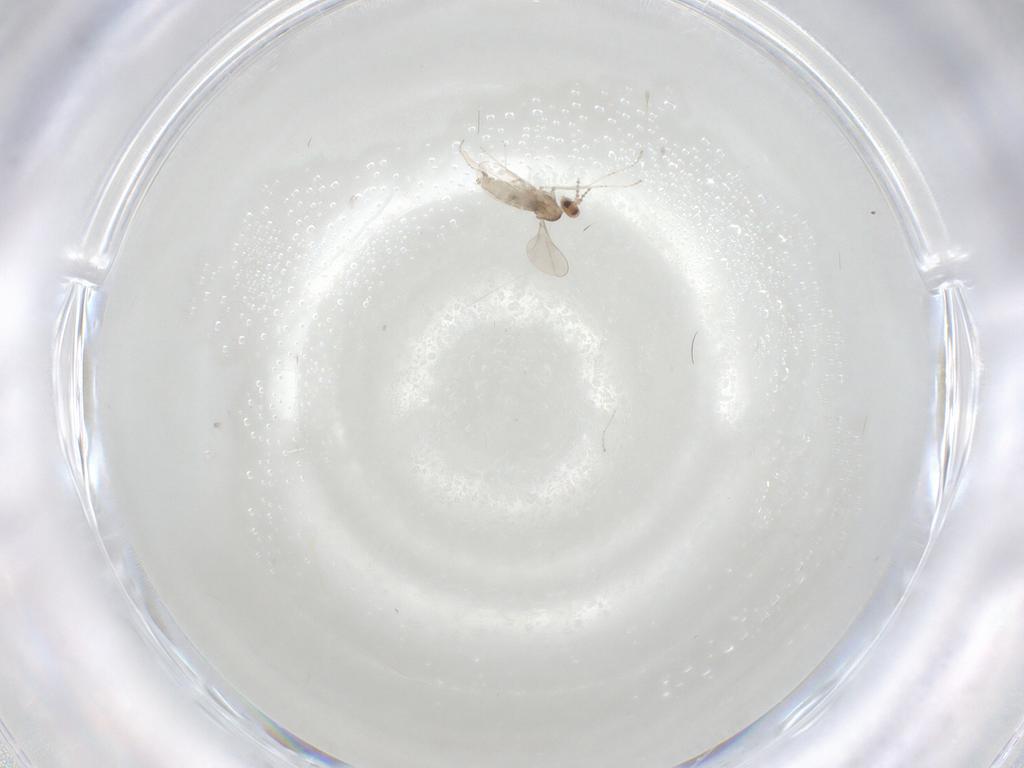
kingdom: Animalia
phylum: Arthropoda
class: Insecta
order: Diptera
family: Cecidomyiidae
